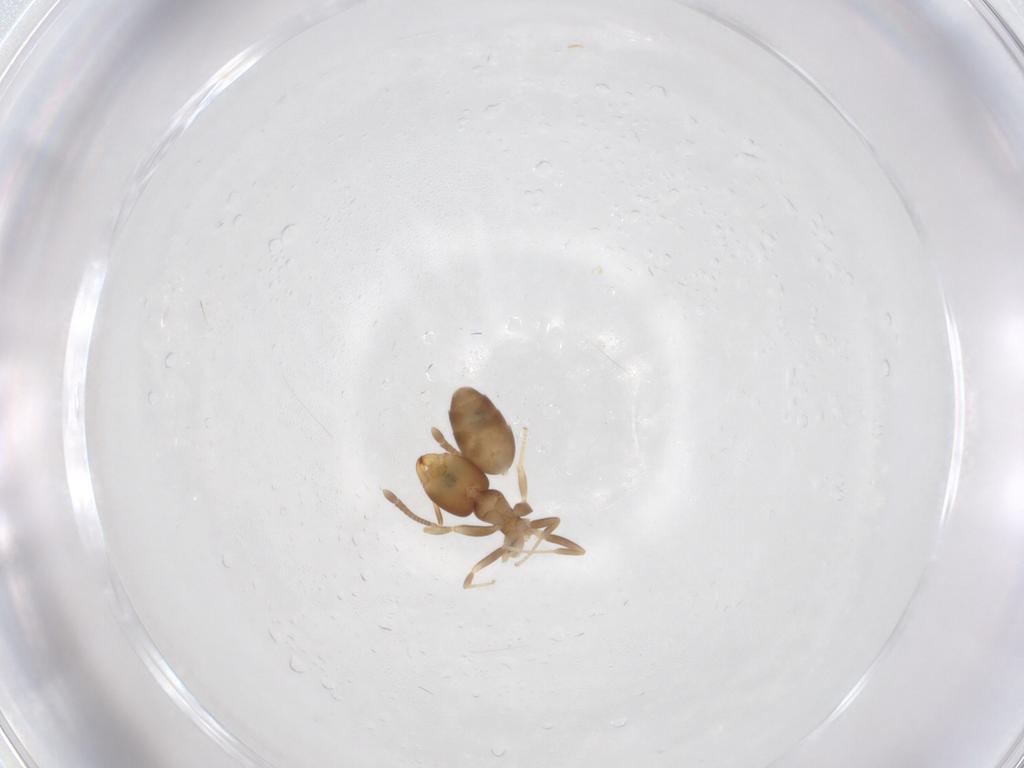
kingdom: Animalia
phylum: Arthropoda
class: Insecta
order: Hymenoptera
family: Formicidae
